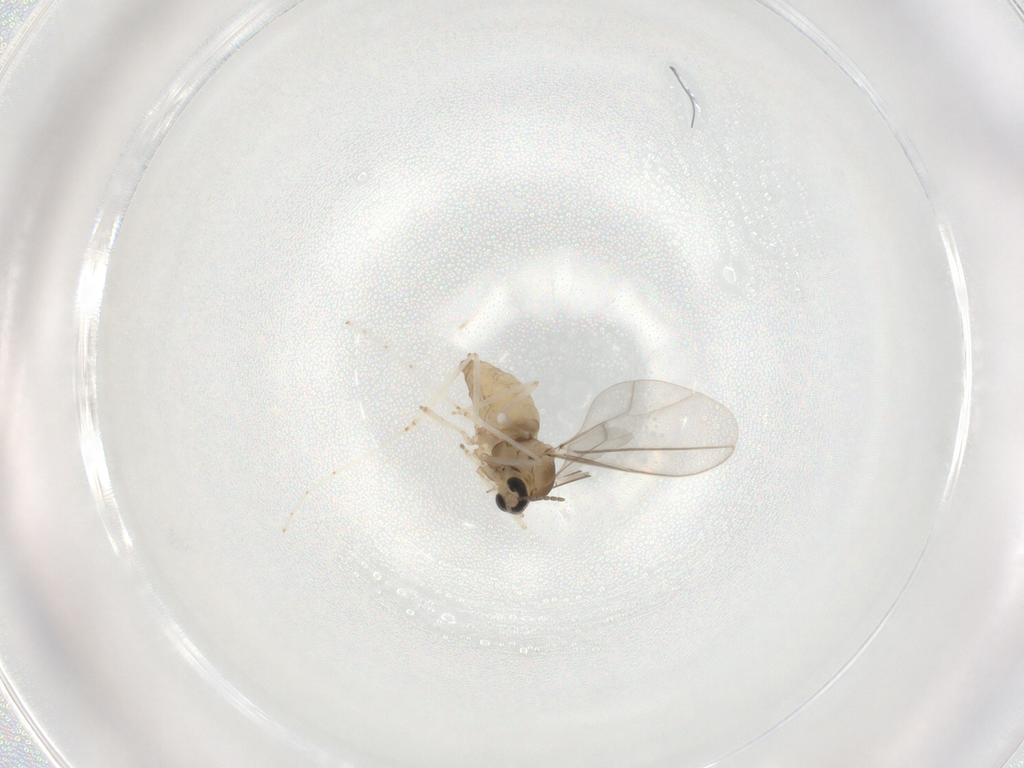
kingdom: Animalia
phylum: Arthropoda
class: Insecta
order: Diptera
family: Cecidomyiidae
